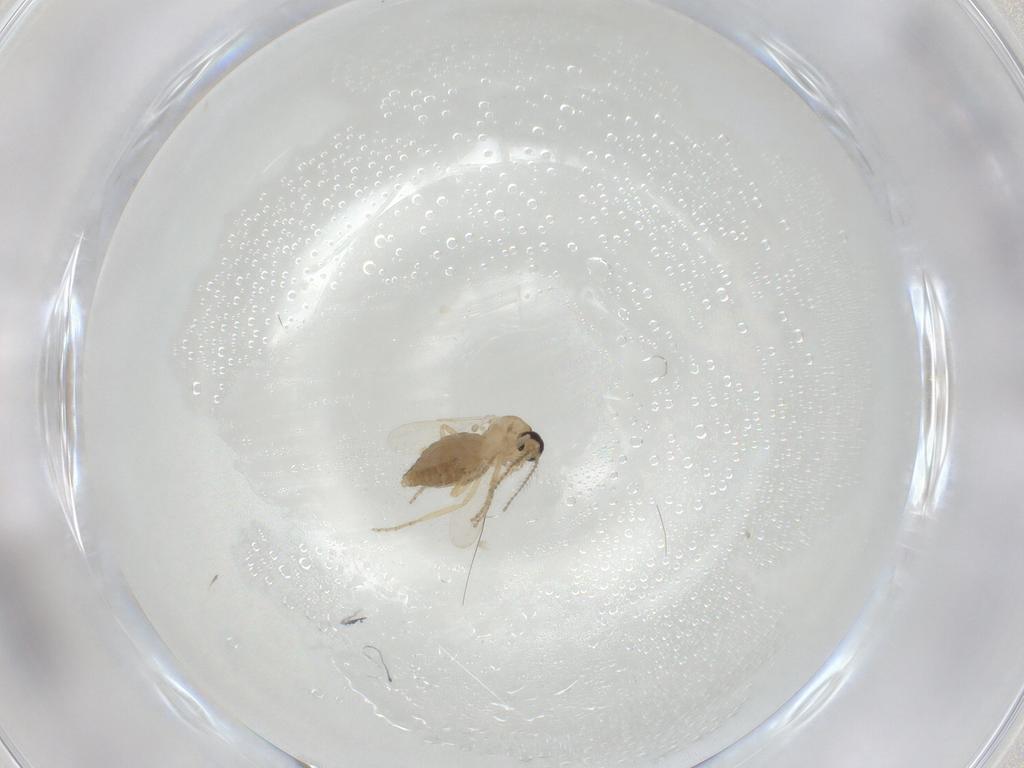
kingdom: Animalia
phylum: Arthropoda
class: Insecta
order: Diptera
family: Ceratopogonidae
